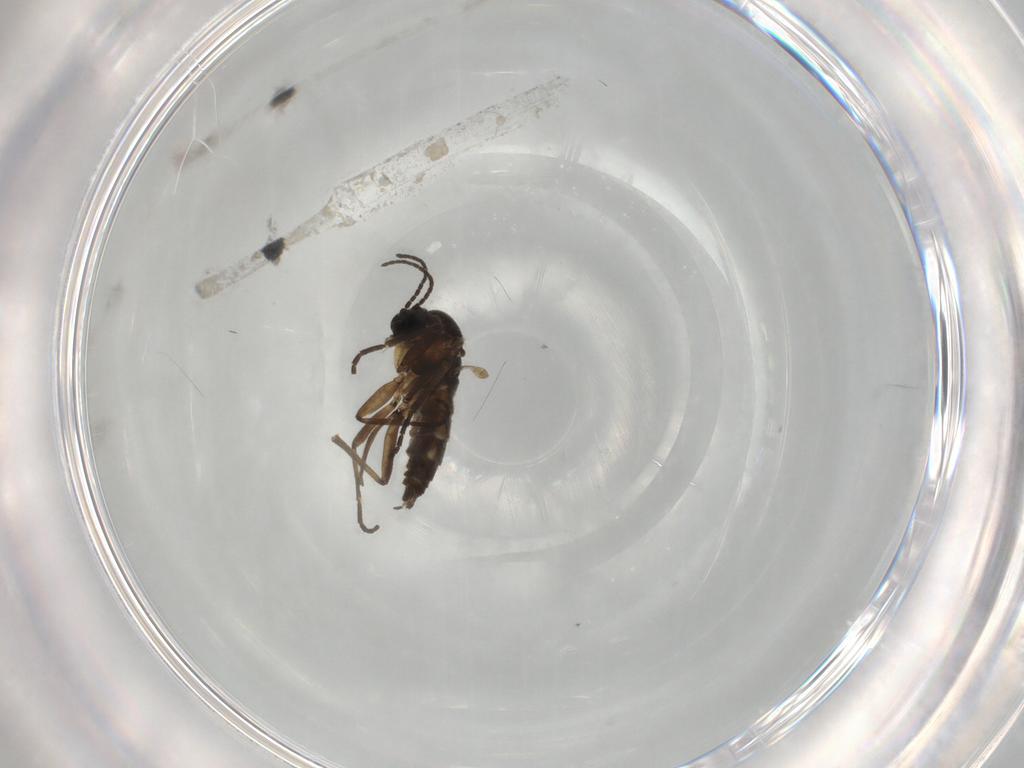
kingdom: Animalia
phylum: Arthropoda
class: Insecta
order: Diptera
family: Sciaridae
